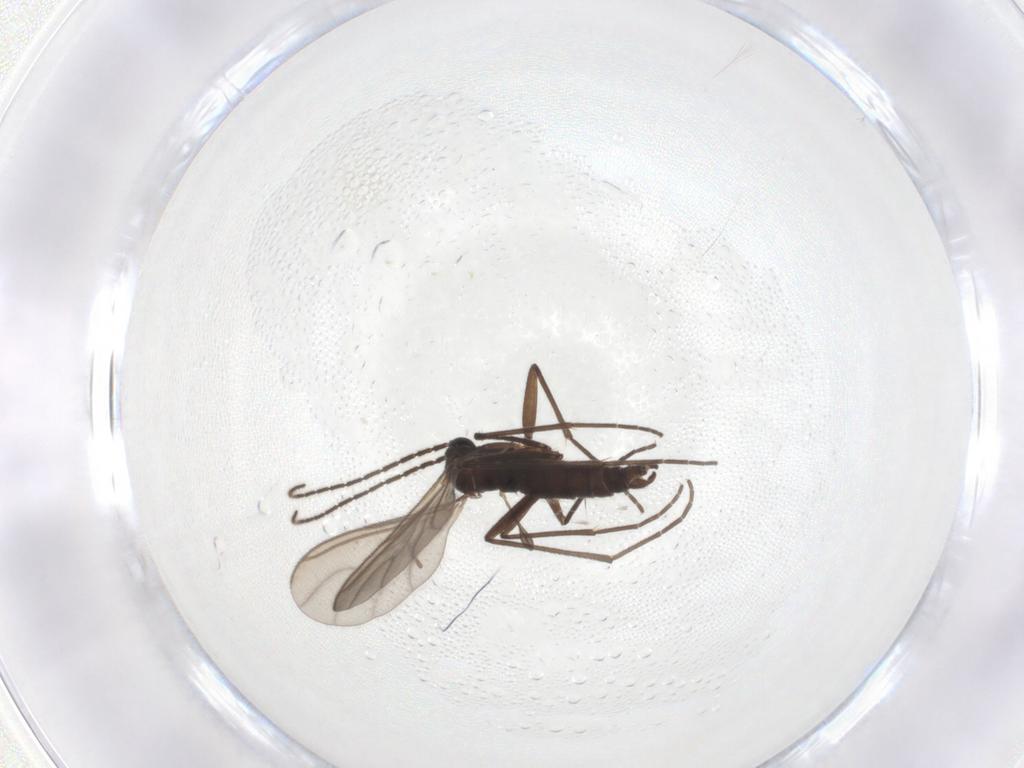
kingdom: Animalia
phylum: Arthropoda
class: Insecta
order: Diptera
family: Sciaridae
